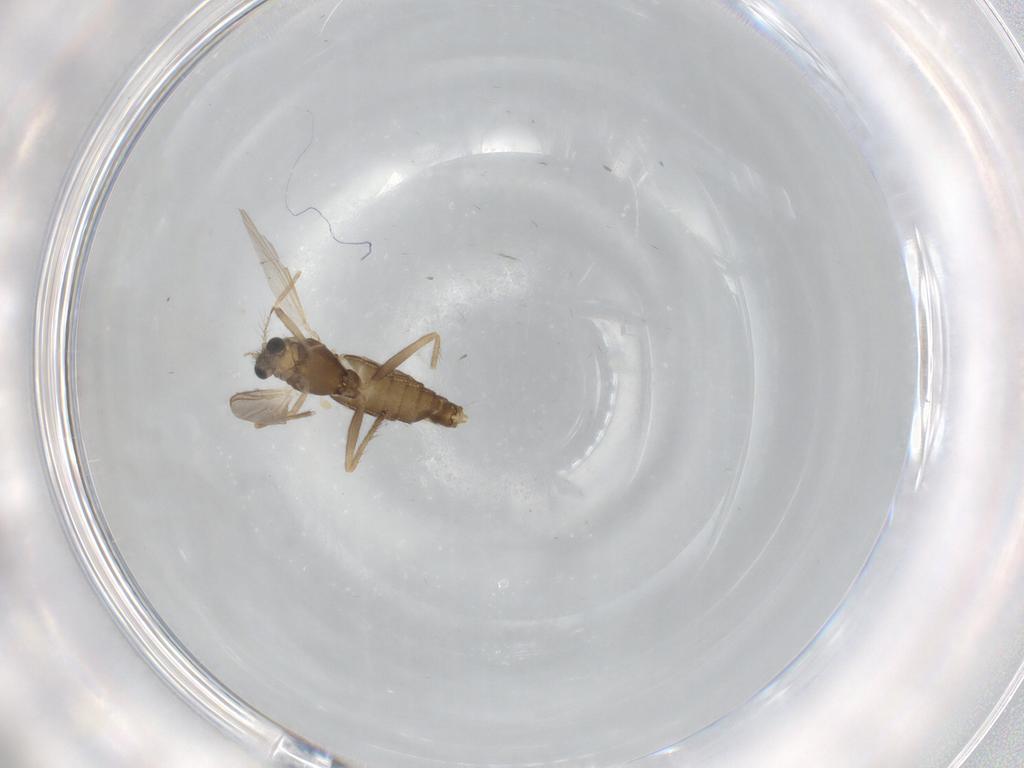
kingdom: Animalia
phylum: Arthropoda
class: Insecta
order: Diptera
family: Chironomidae
